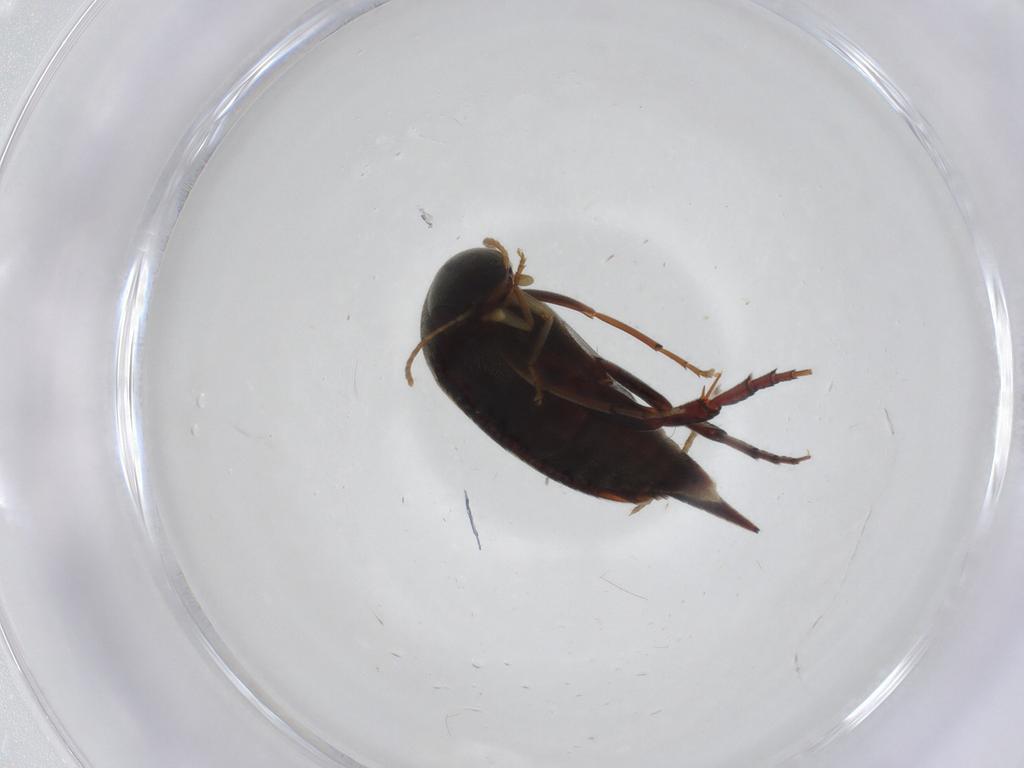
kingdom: Animalia
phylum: Arthropoda
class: Insecta
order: Coleoptera
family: Mordellidae
